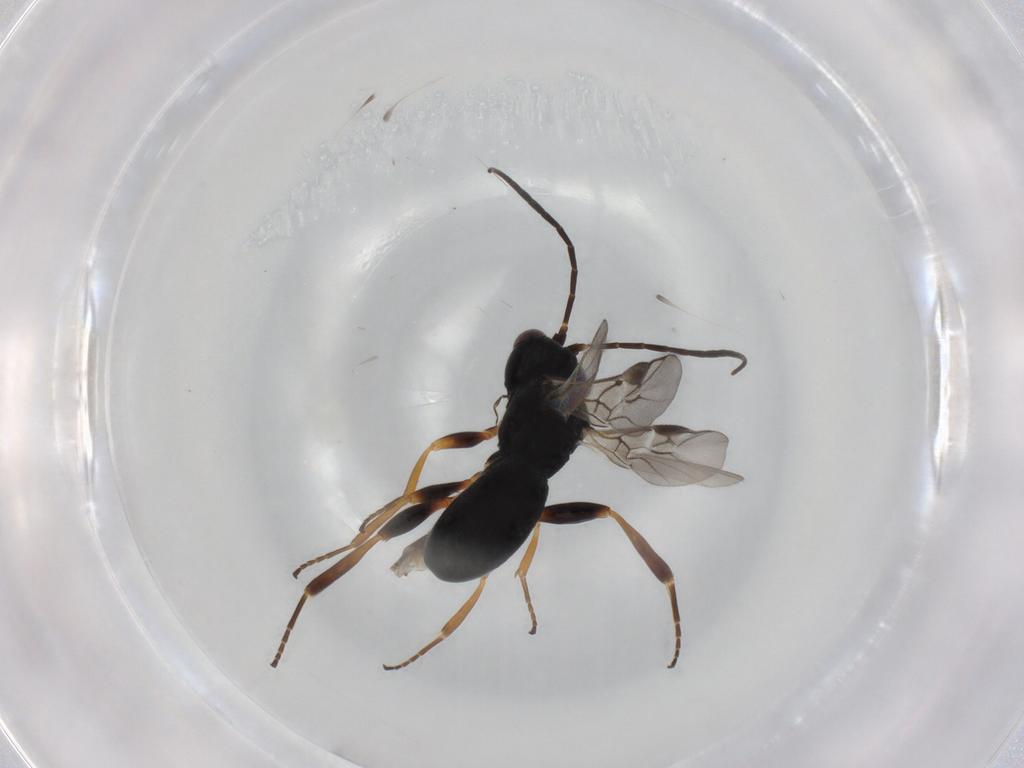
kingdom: Animalia
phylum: Arthropoda
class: Insecta
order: Hymenoptera
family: Braconidae
